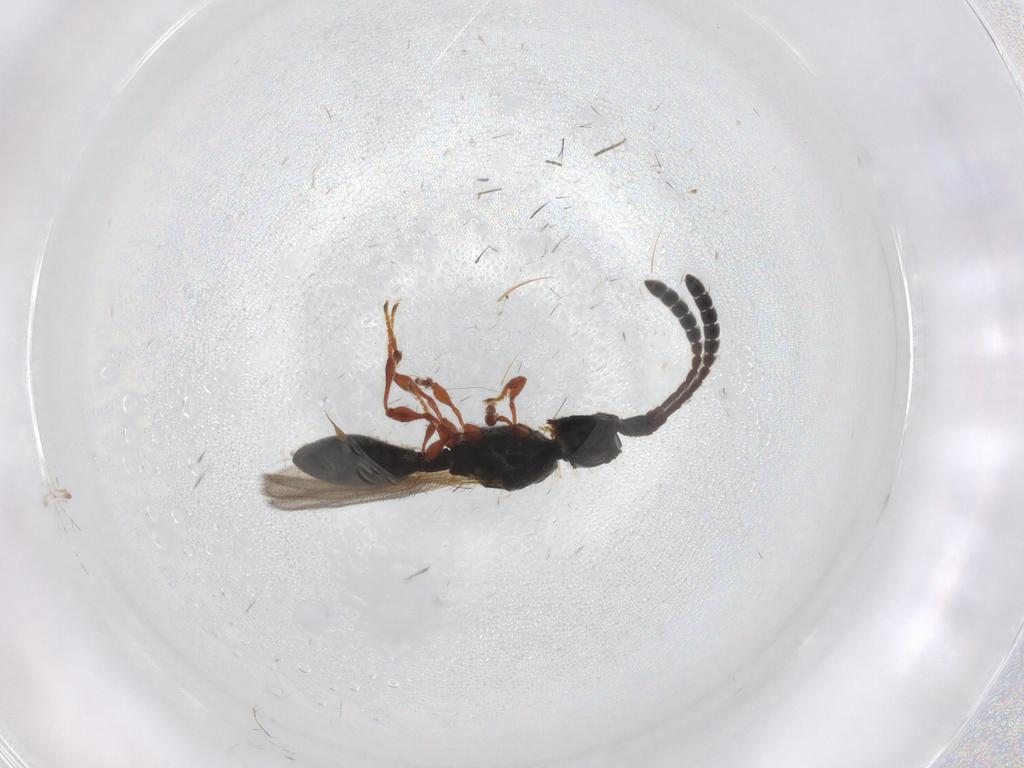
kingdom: Animalia
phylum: Arthropoda
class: Insecta
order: Hymenoptera
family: Diapriidae
